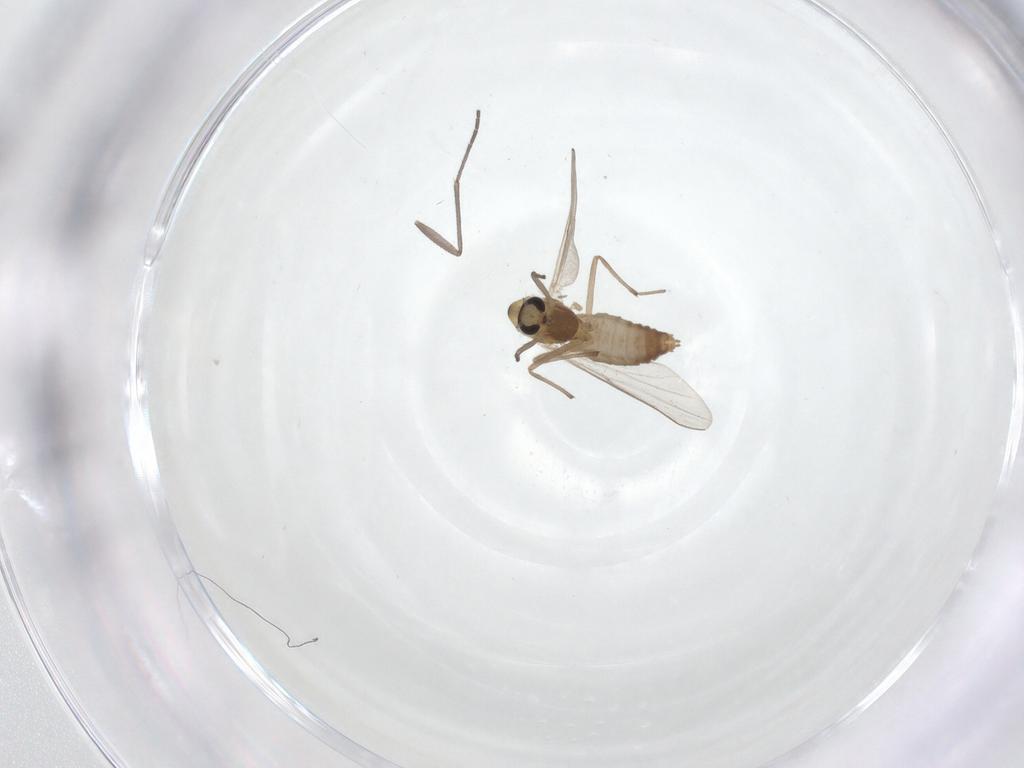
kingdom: Animalia
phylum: Arthropoda
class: Insecta
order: Diptera
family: Chironomidae
